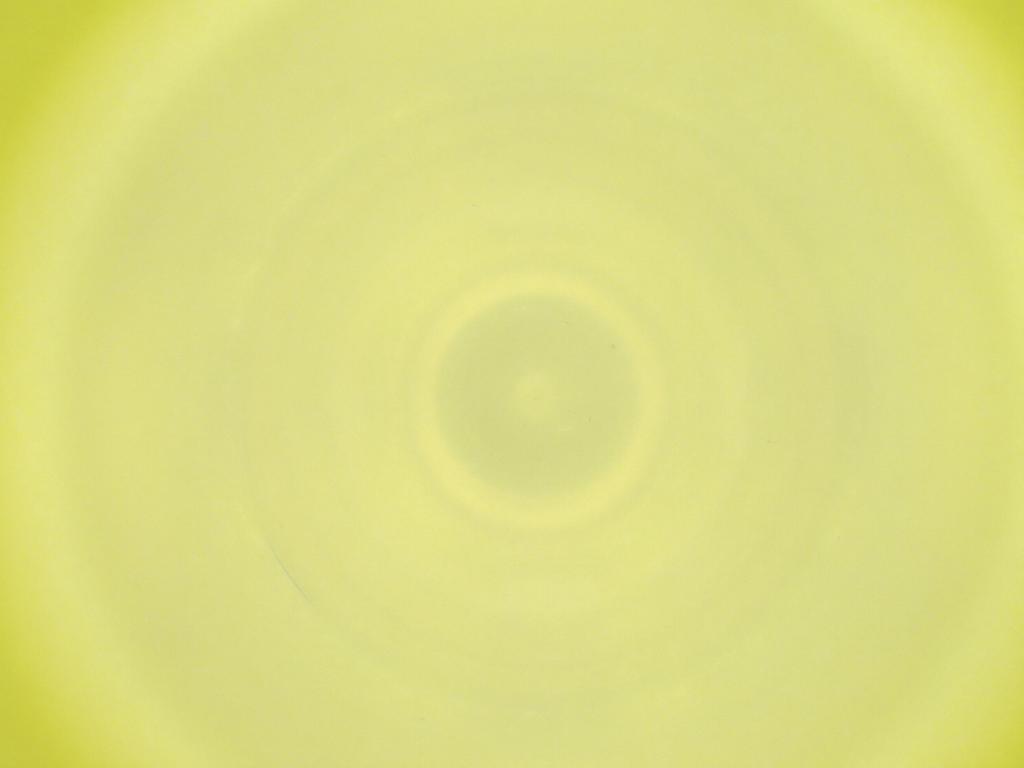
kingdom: Animalia
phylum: Arthropoda
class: Insecta
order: Diptera
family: Cecidomyiidae
